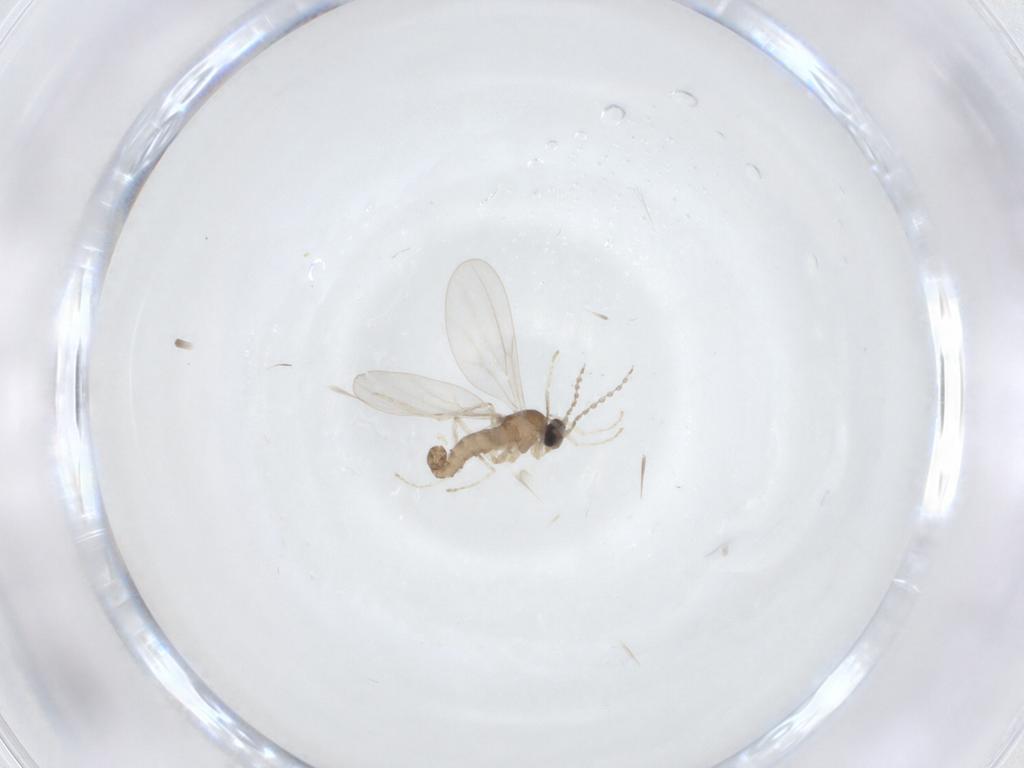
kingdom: Animalia
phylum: Arthropoda
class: Insecta
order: Diptera
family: Cecidomyiidae
